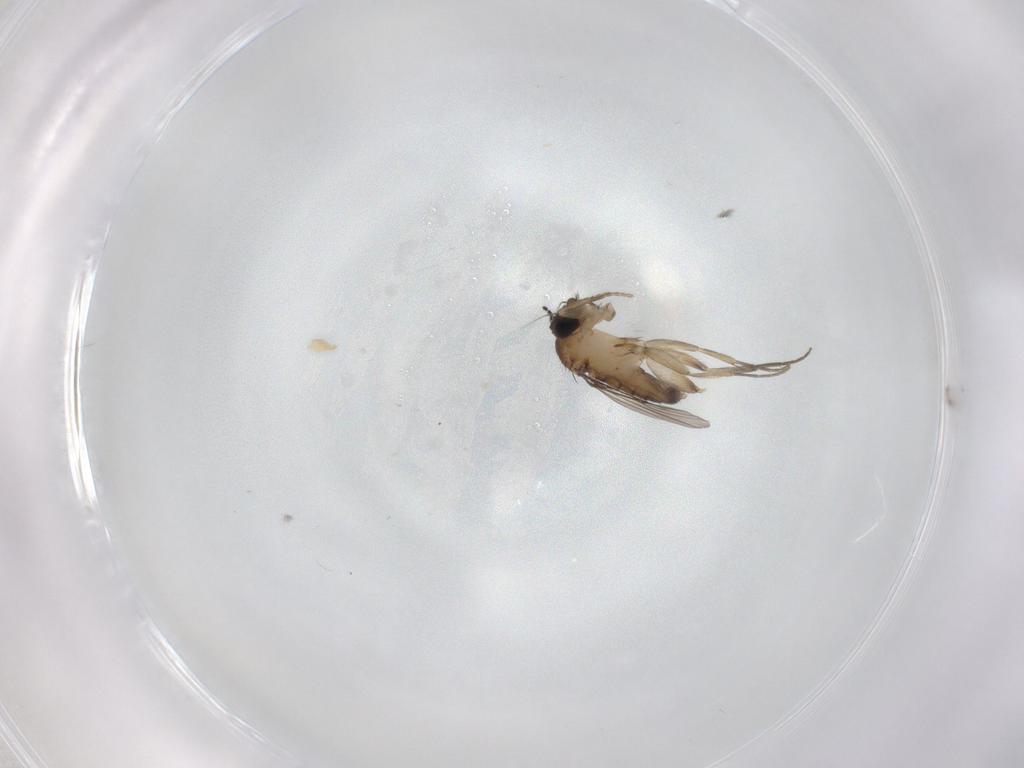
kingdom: Animalia
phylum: Arthropoda
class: Insecta
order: Diptera
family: Phoridae
